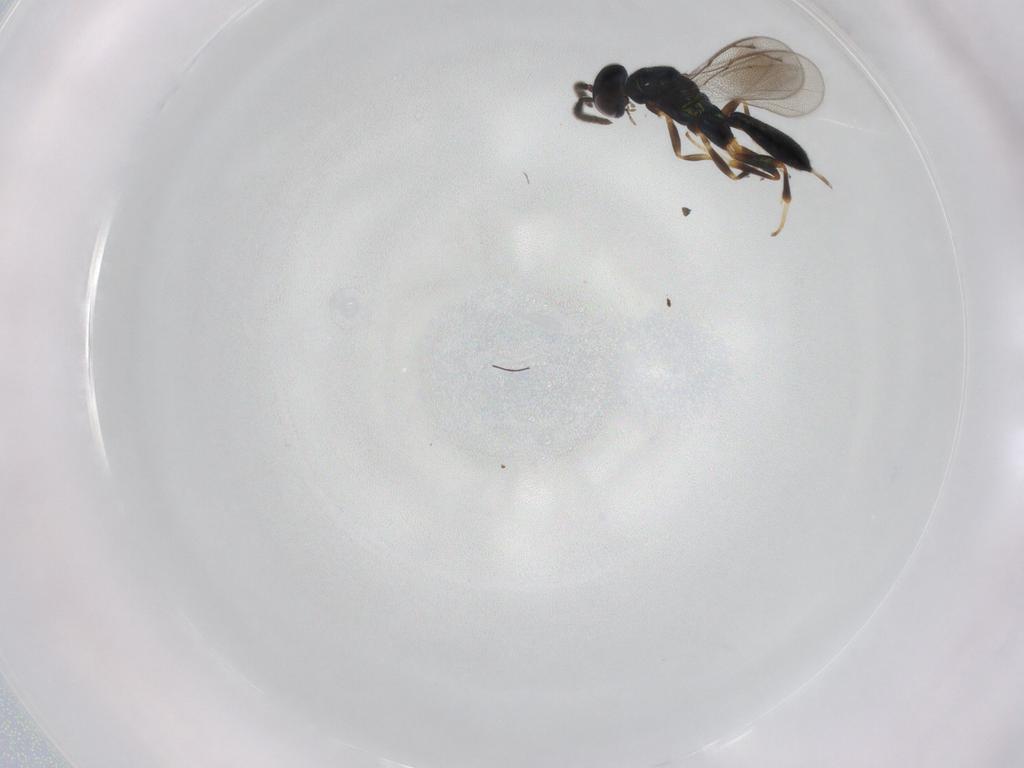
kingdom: Animalia
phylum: Arthropoda
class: Insecta
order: Hymenoptera
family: Cleonyminae
